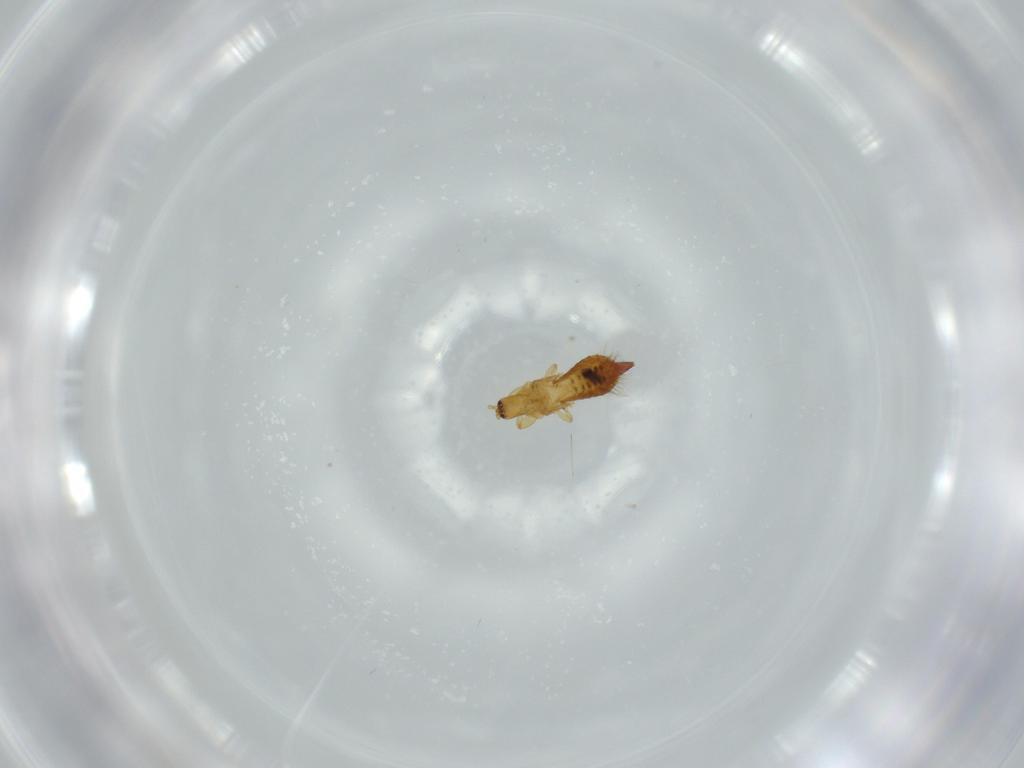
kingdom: Animalia
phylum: Arthropoda
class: Insecta
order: Thysanoptera
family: Phlaeothripidae
